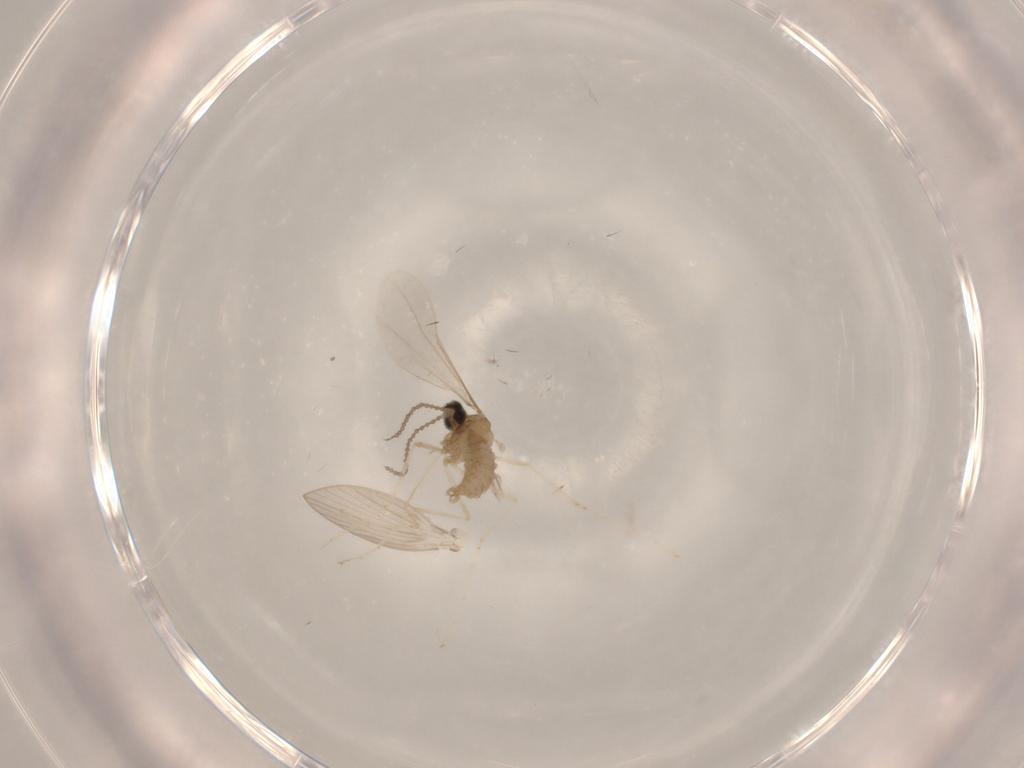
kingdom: Animalia
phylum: Arthropoda
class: Insecta
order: Diptera
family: Cecidomyiidae
